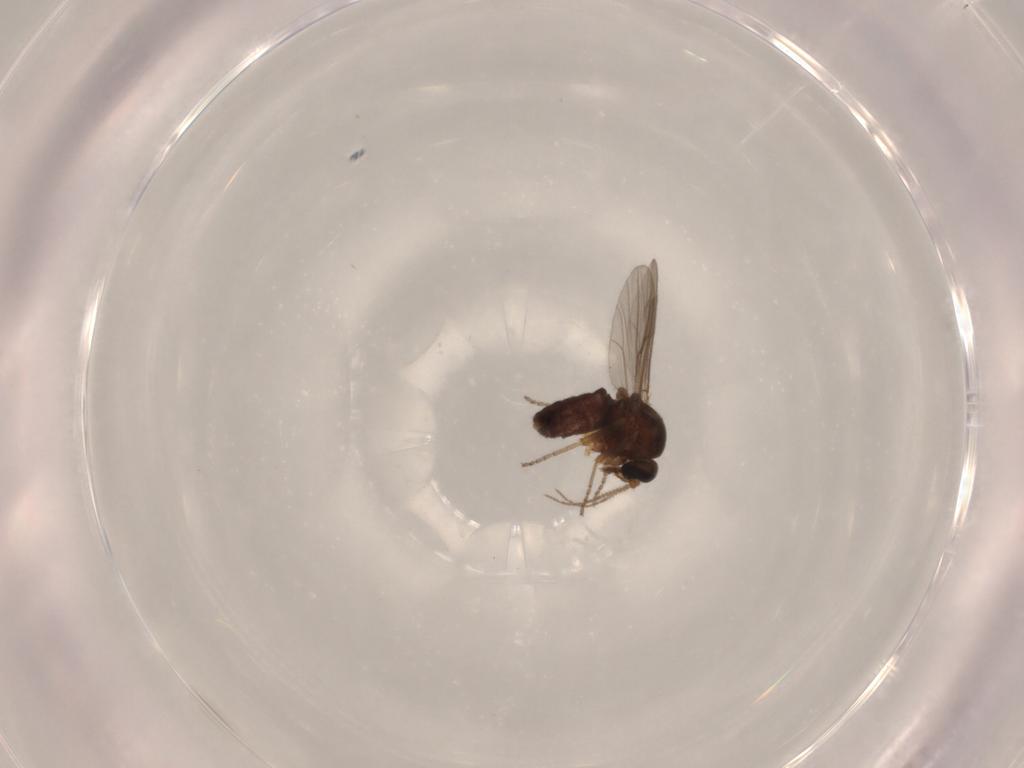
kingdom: Animalia
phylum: Arthropoda
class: Insecta
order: Diptera
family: Ceratopogonidae
